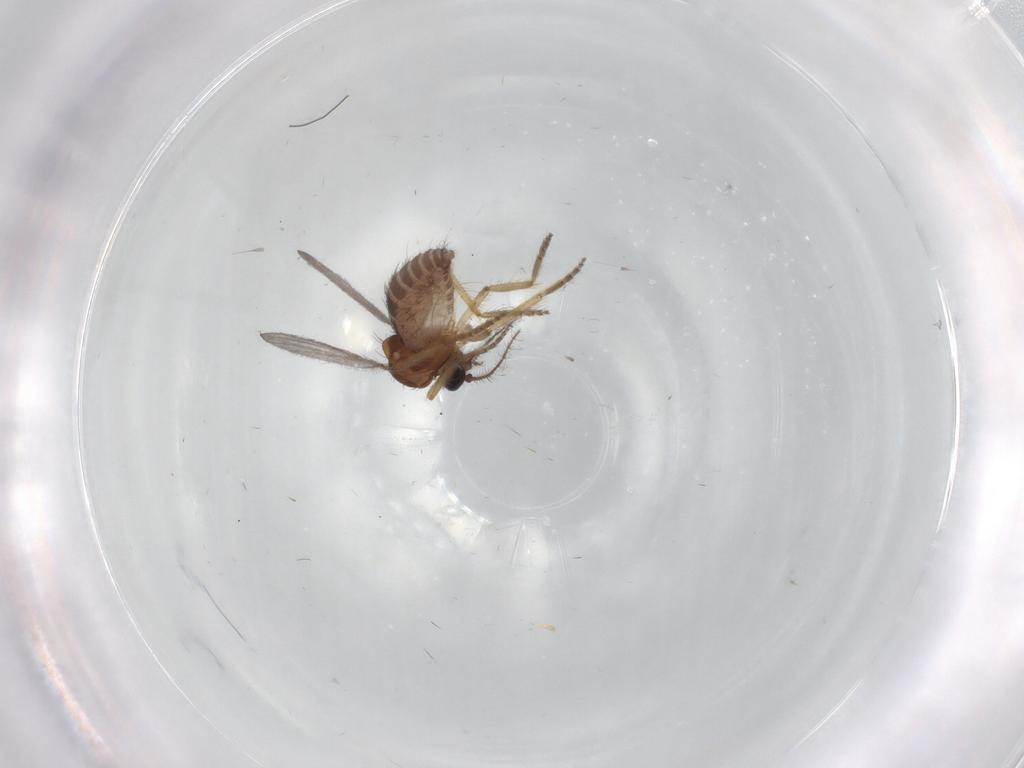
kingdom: Animalia
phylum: Arthropoda
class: Insecta
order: Diptera
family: Ceratopogonidae
